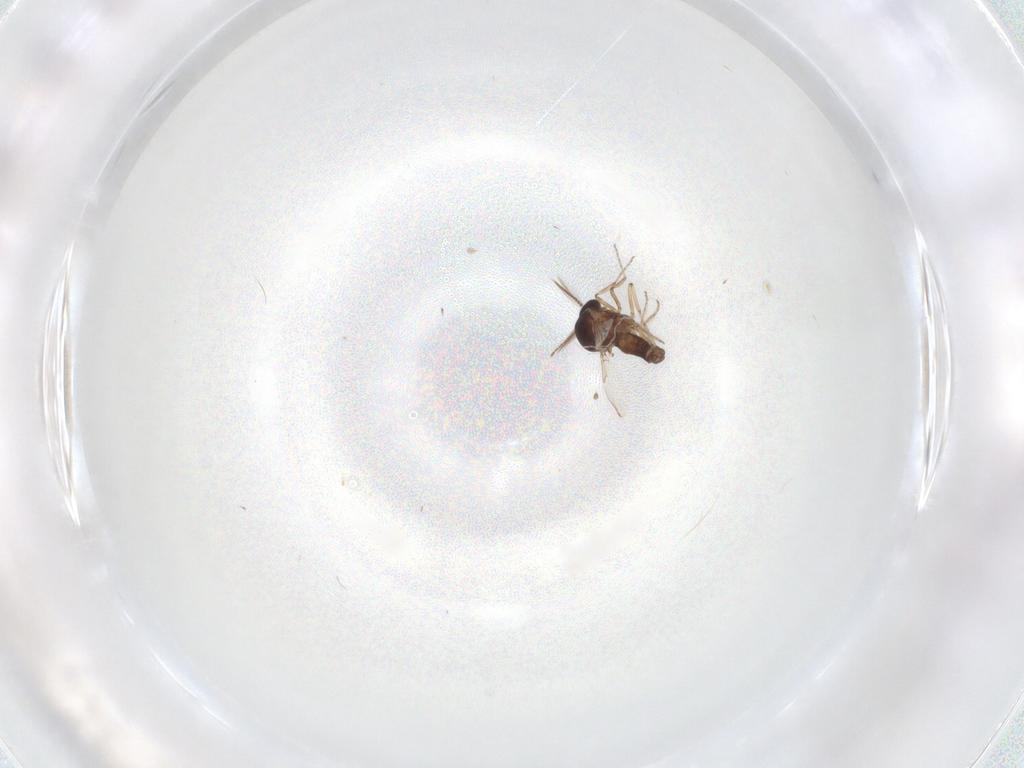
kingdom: Animalia
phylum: Arthropoda
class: Insecta
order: Diptera
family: Ceratopogonidae
